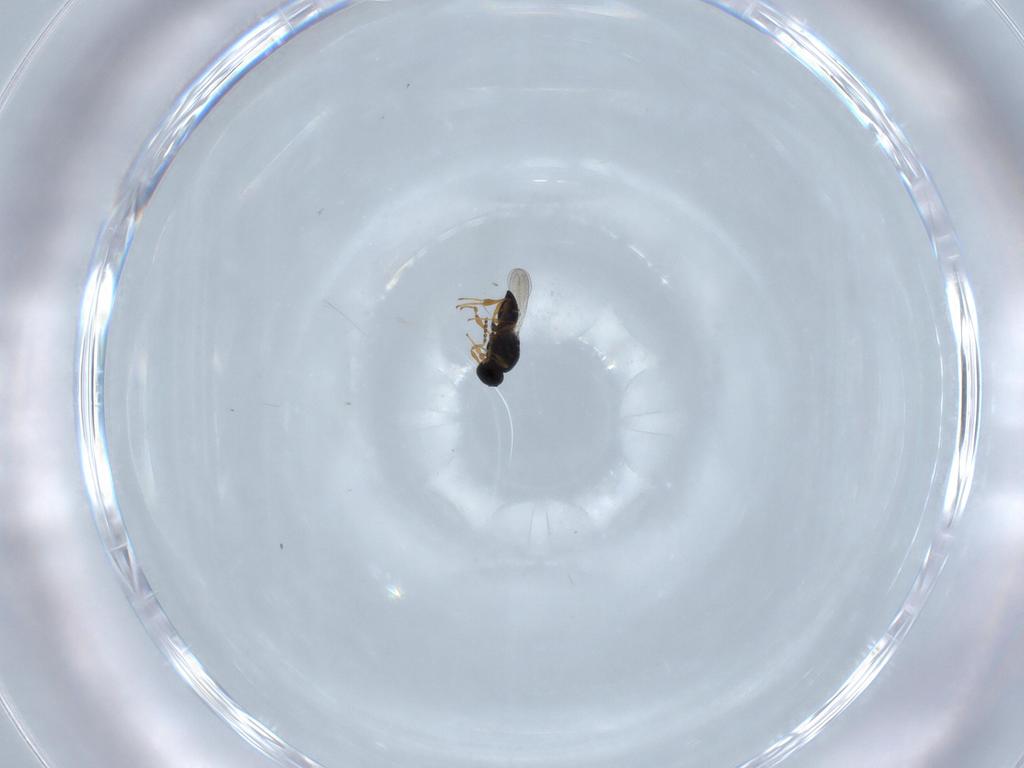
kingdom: Animalia
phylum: Arthropoda
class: Insecta
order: Hymenoptera
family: Platygastridae
